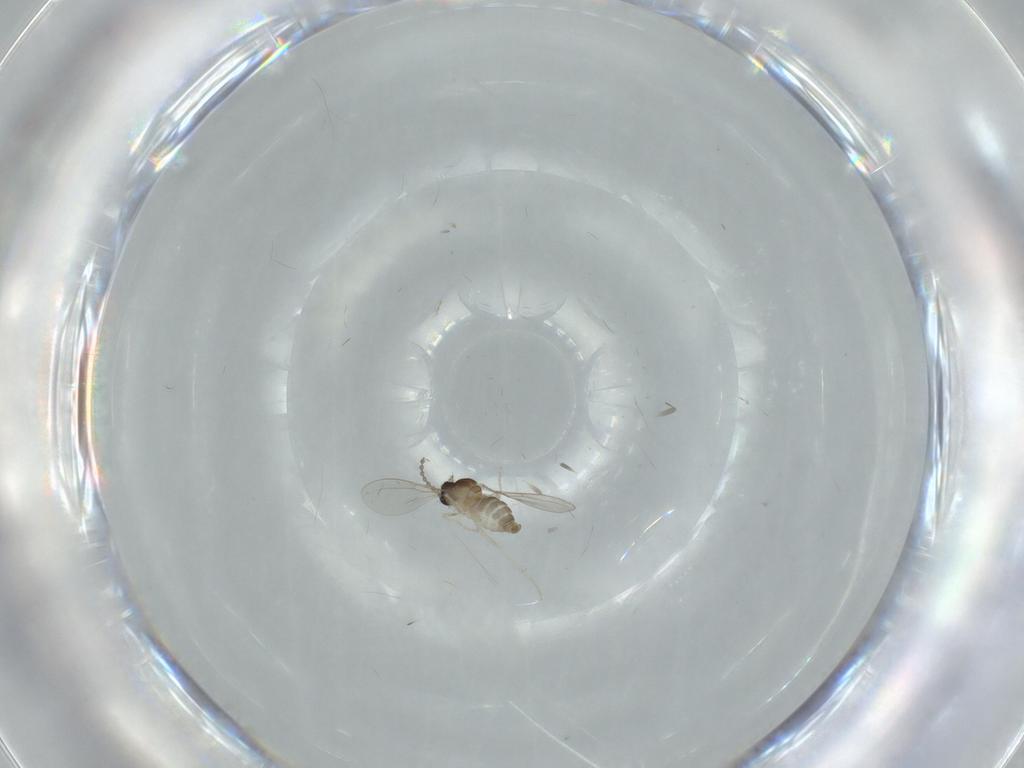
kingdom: Animalia
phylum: Arthropoda
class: Insecta
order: Diptera
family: Cecidomyiidae
